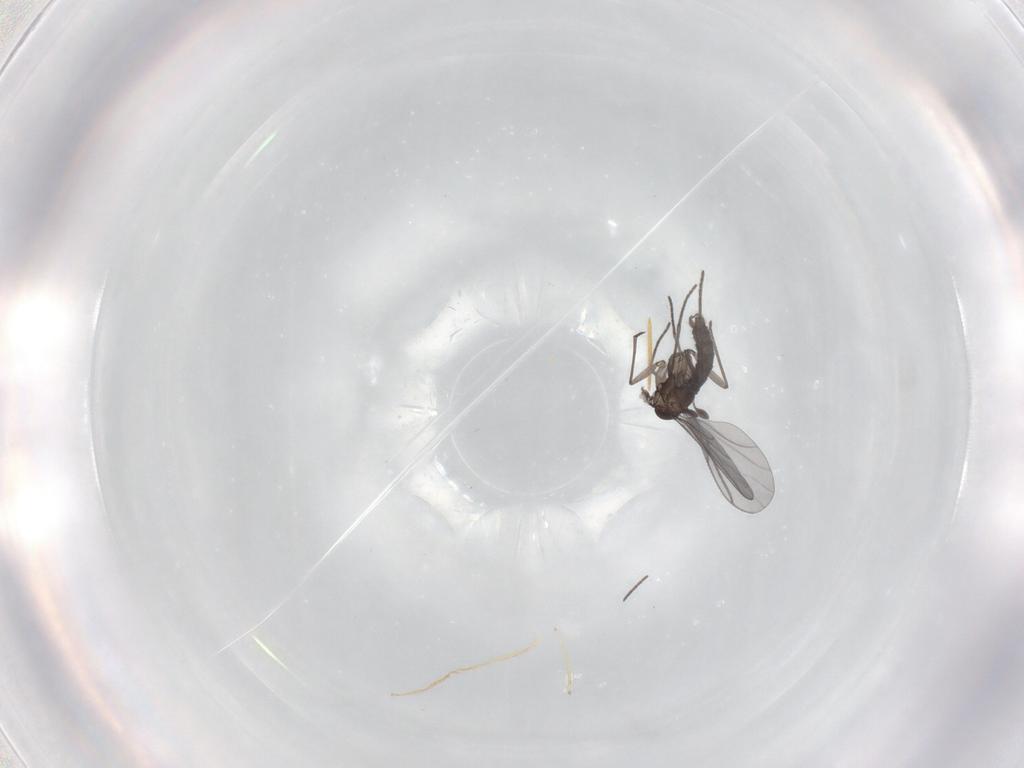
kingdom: Animalia
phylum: Arthropoda
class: Insecta
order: Diptera
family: Sciaridae
